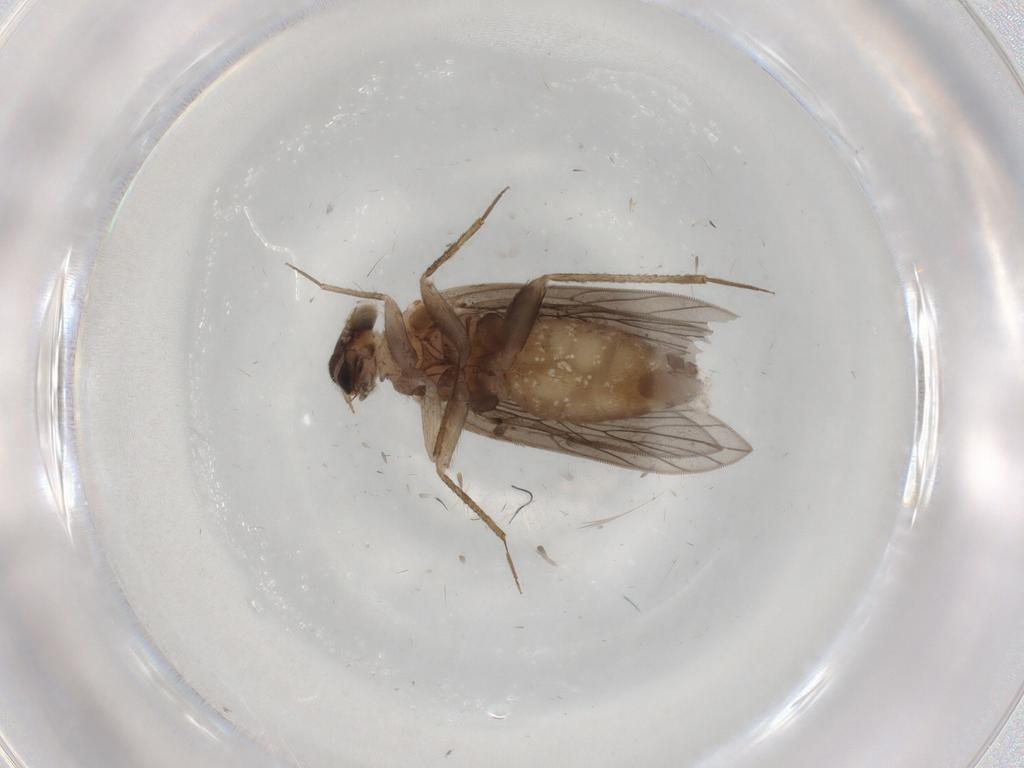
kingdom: Animalia
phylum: Arthropoda
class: Insecta
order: Psocodea
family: Lepidopsocidae
